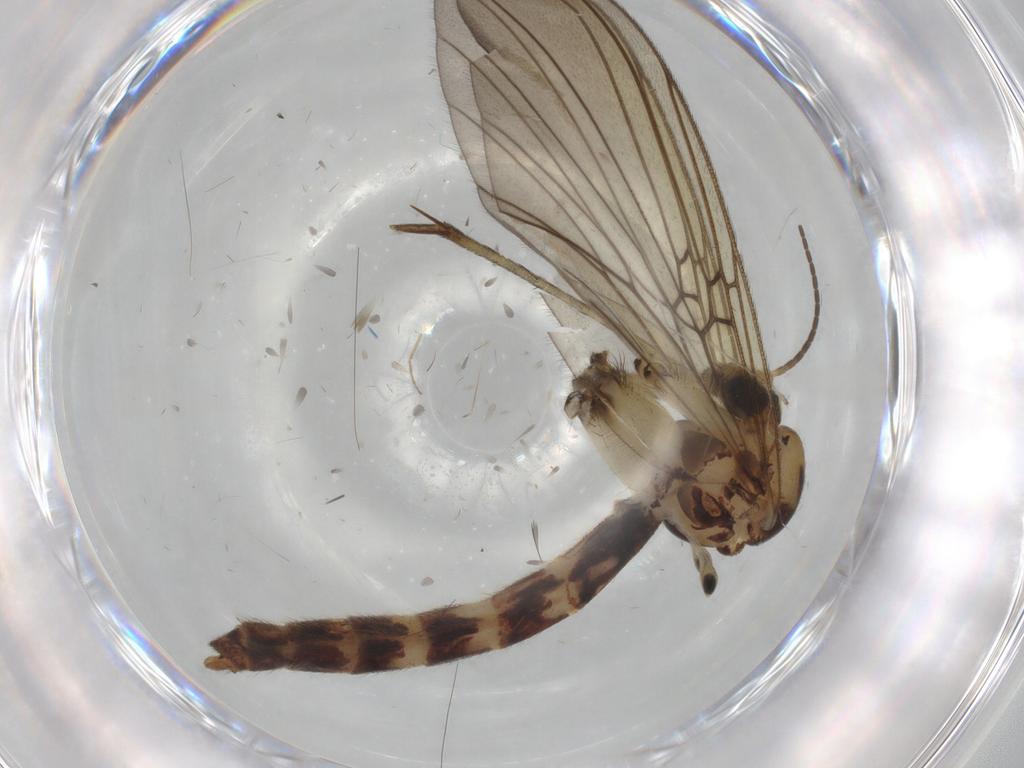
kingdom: Animalia
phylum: Arthropoda
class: Insecta
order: Diptera
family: Mycetophilidae
